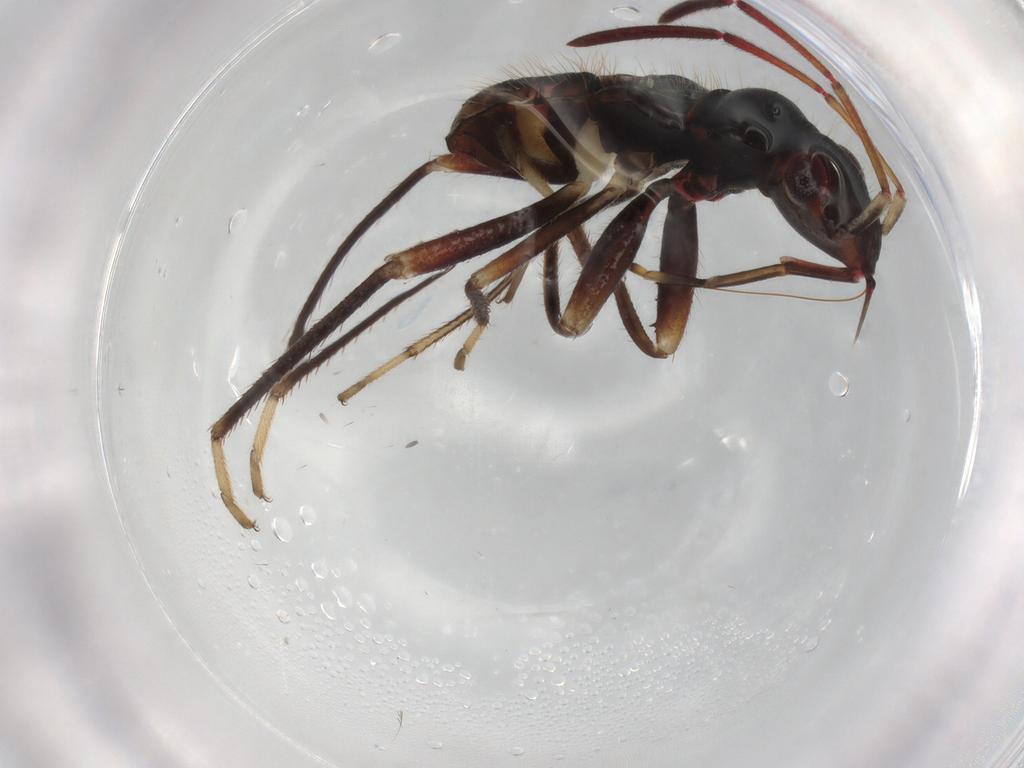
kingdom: Animalia
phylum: Arthropoda
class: Insecta
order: Hemiptera
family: Rhyparochromidae
